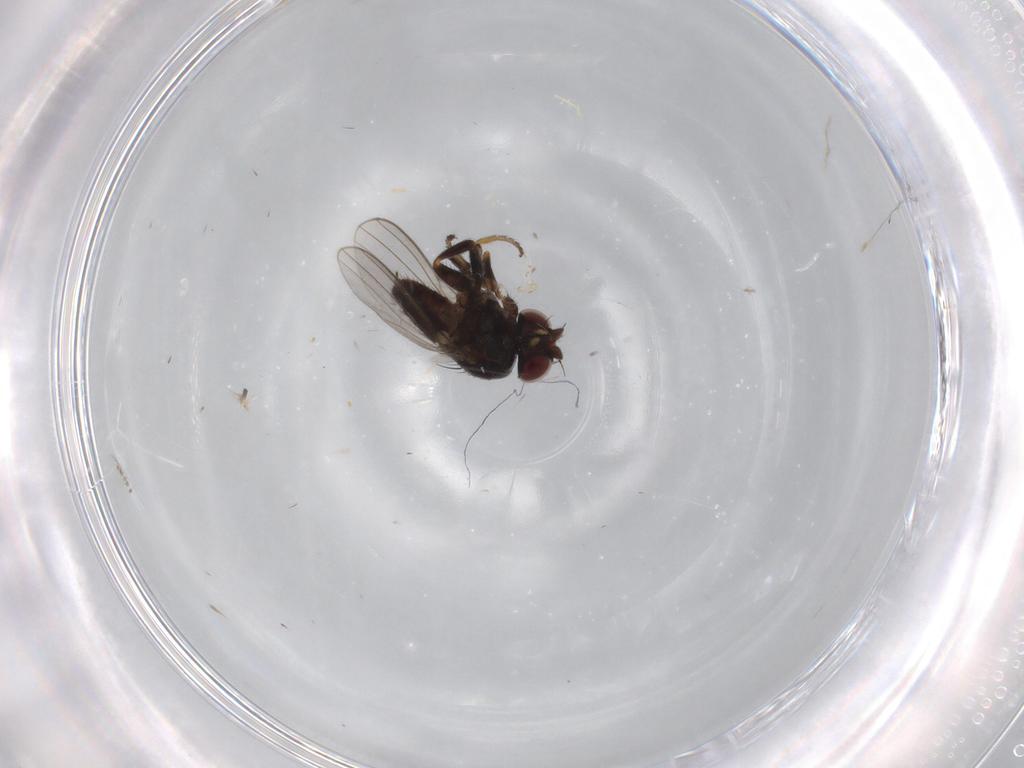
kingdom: Animalia
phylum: Arthropoda
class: Insecta
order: Diptera
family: Milichiidae
